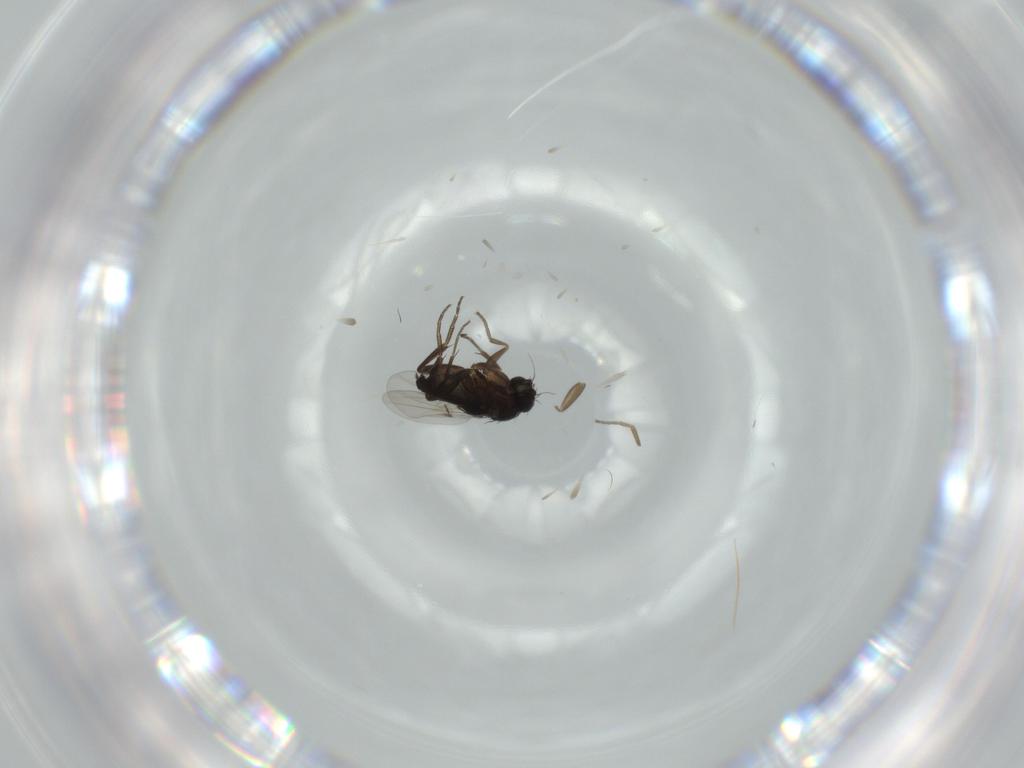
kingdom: Animalia
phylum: Arthropoda
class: Insecta
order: Diptera
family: Phoridae
